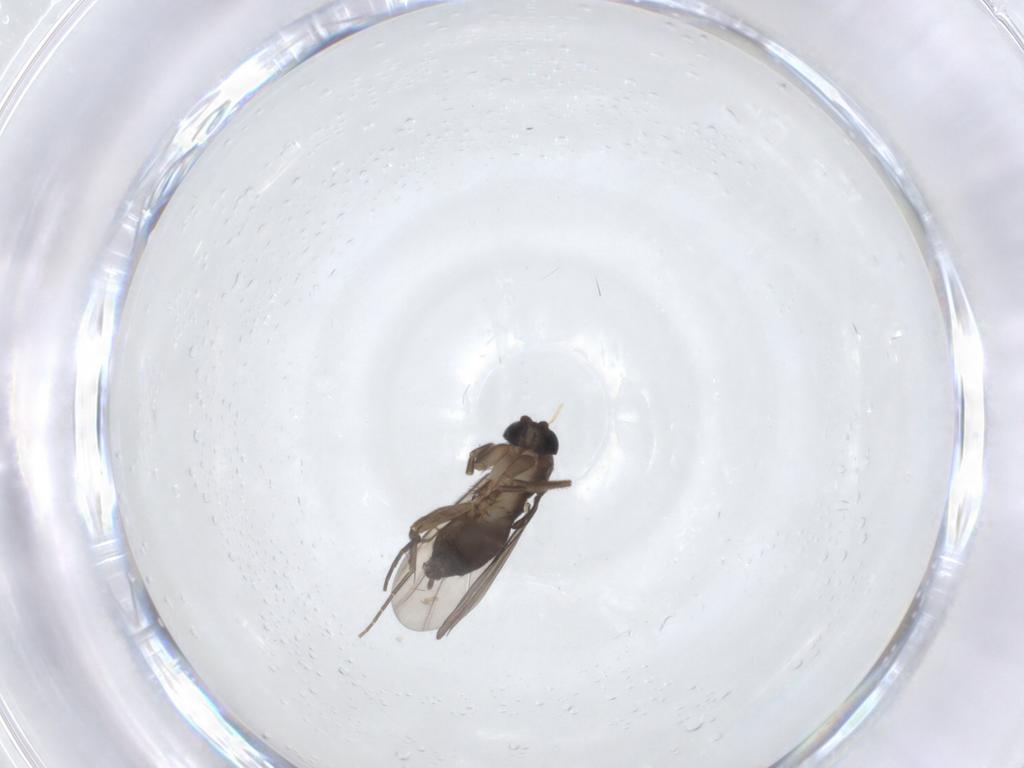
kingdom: Animalia
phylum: Arthropoda
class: Insecta
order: Diptera
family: Phoridae
